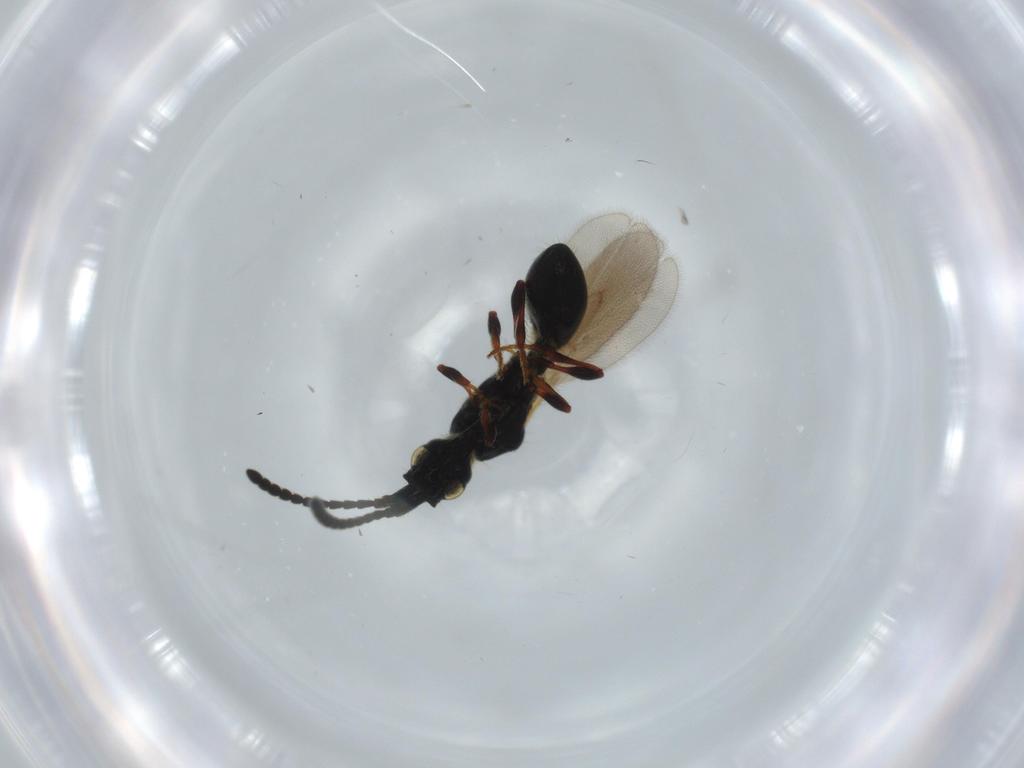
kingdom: Animalia
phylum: Arthropoda
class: Insecta
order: Hymenoptera
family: Diapriidae
